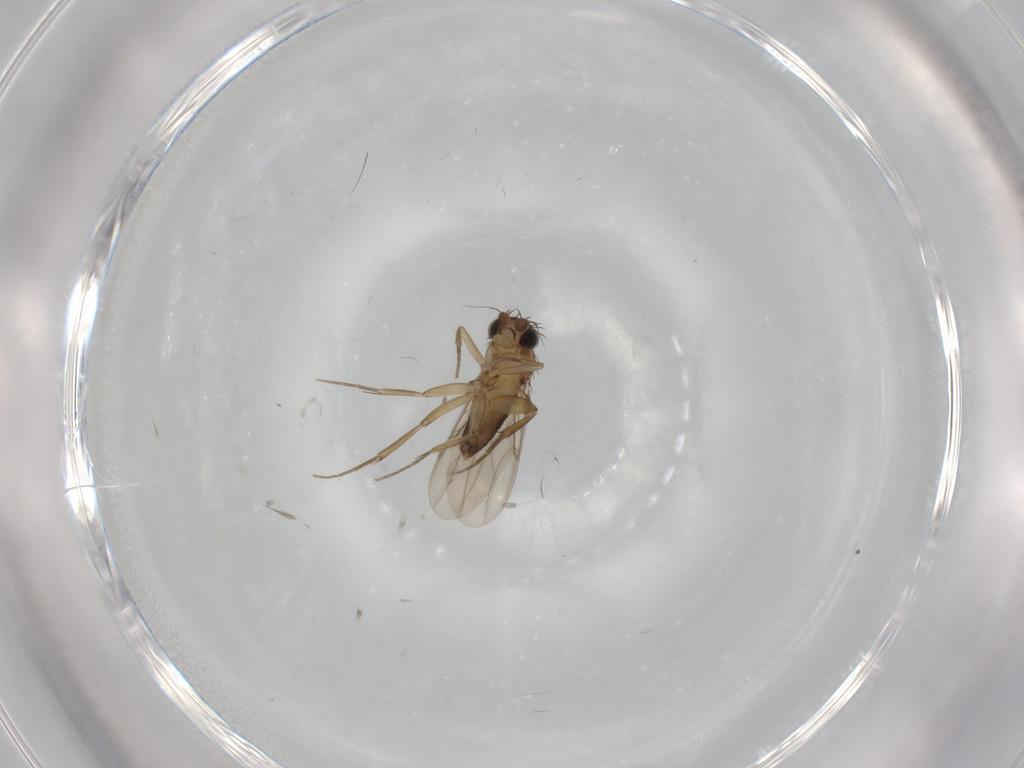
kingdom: Animalia
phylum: Arthropoda
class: Insecta
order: Diptera
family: Phoridae
